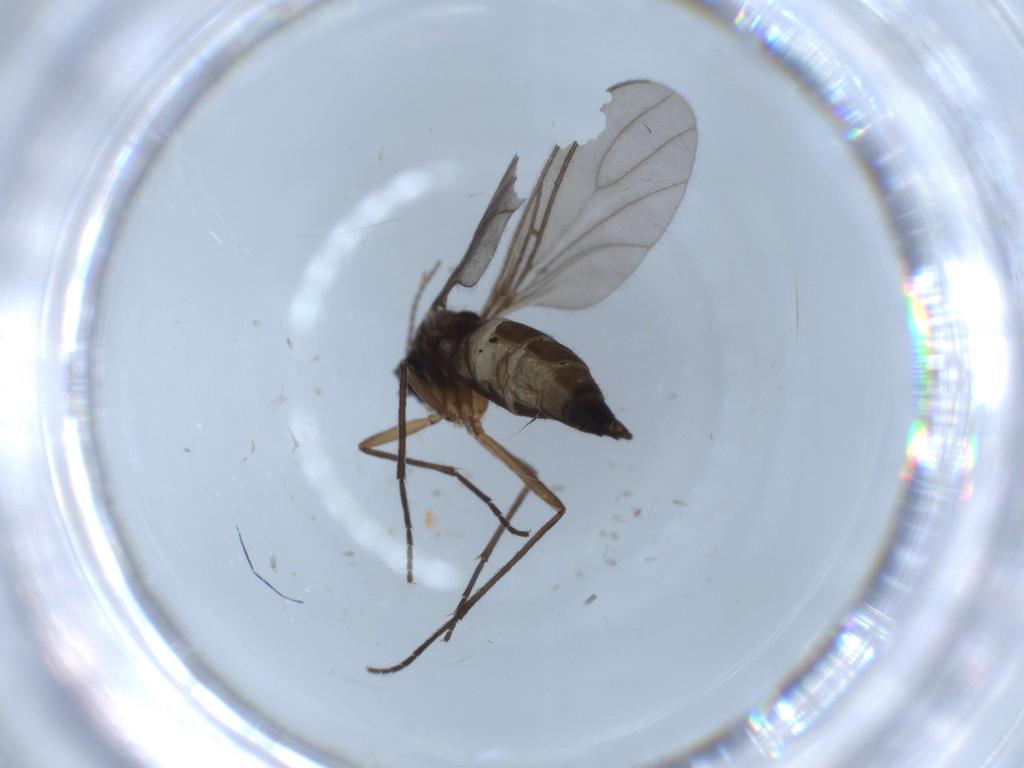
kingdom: Animalia
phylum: Arthropoda
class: Insecta
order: Diptera
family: Sciaridae
